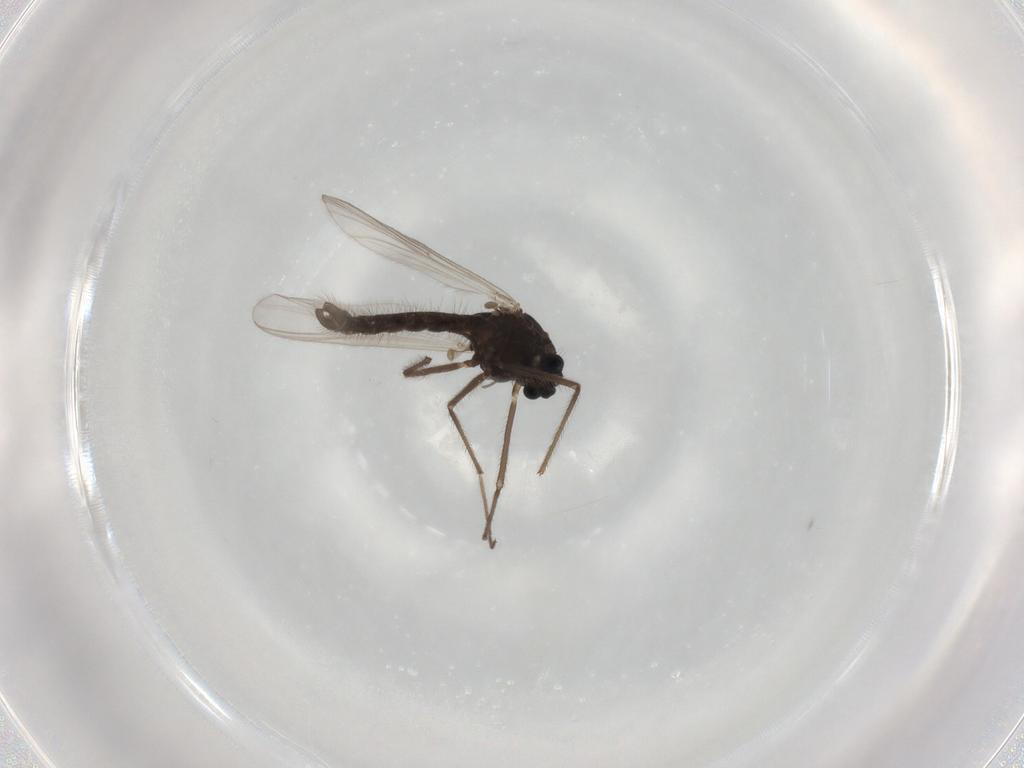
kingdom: Animalia
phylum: Arthropoda
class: Insecta
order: Diptera
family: Chironomidae
